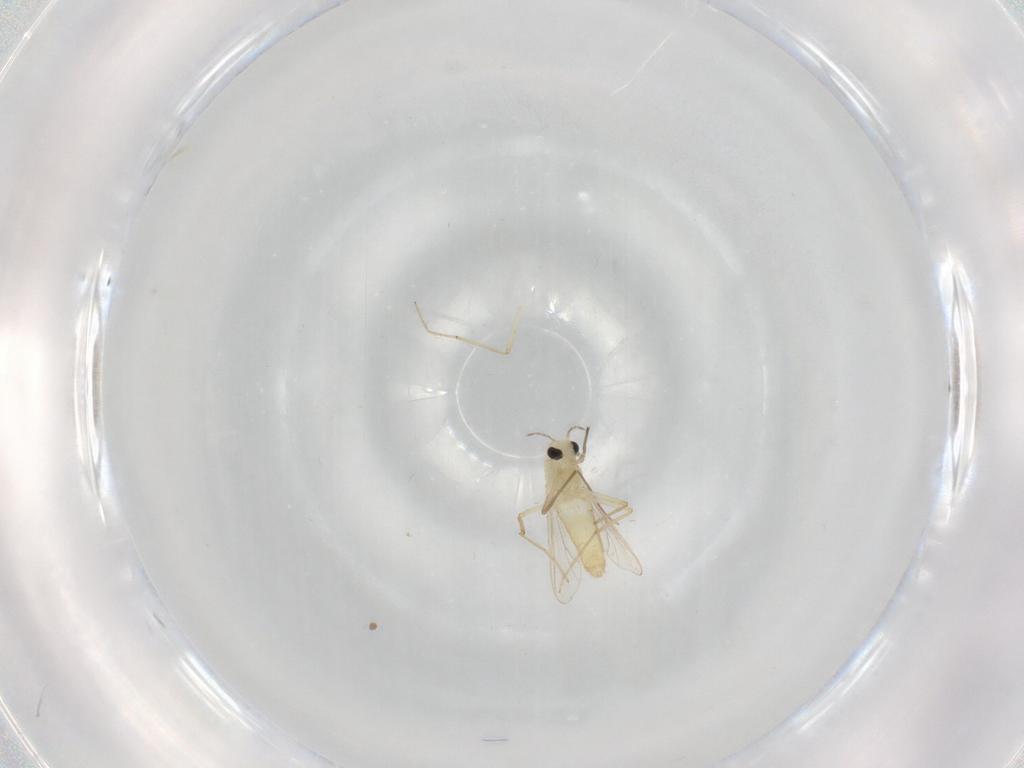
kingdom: Animalia
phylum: Arthropoda
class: Insecta
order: Diptera
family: Chironomidae
